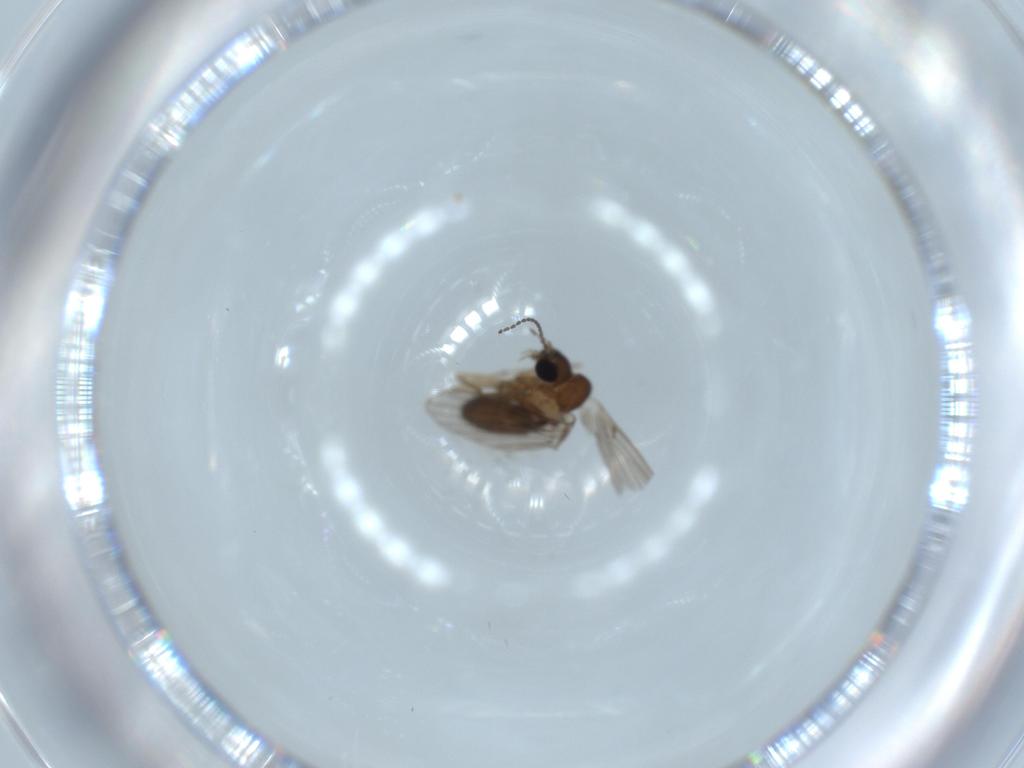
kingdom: Animalia
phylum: Arthropoda
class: Insecta
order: Diptera
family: Psychodidae
